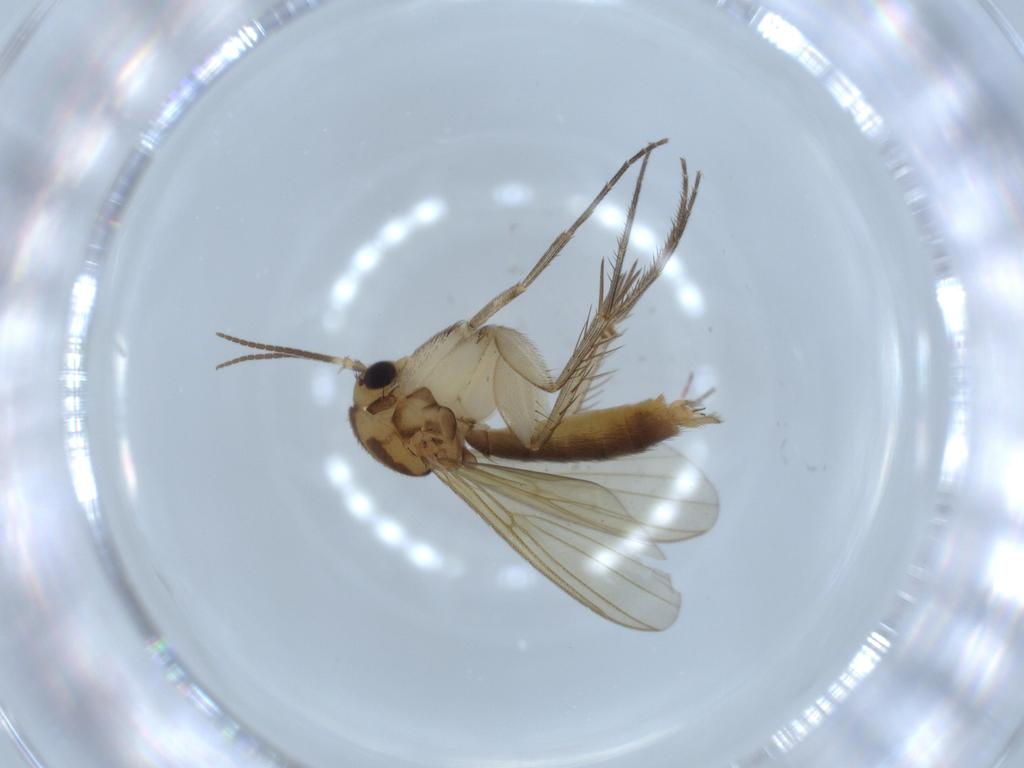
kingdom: Animalia
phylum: Arthropoda
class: Insecta
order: Diptera
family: Mycetophilidae
